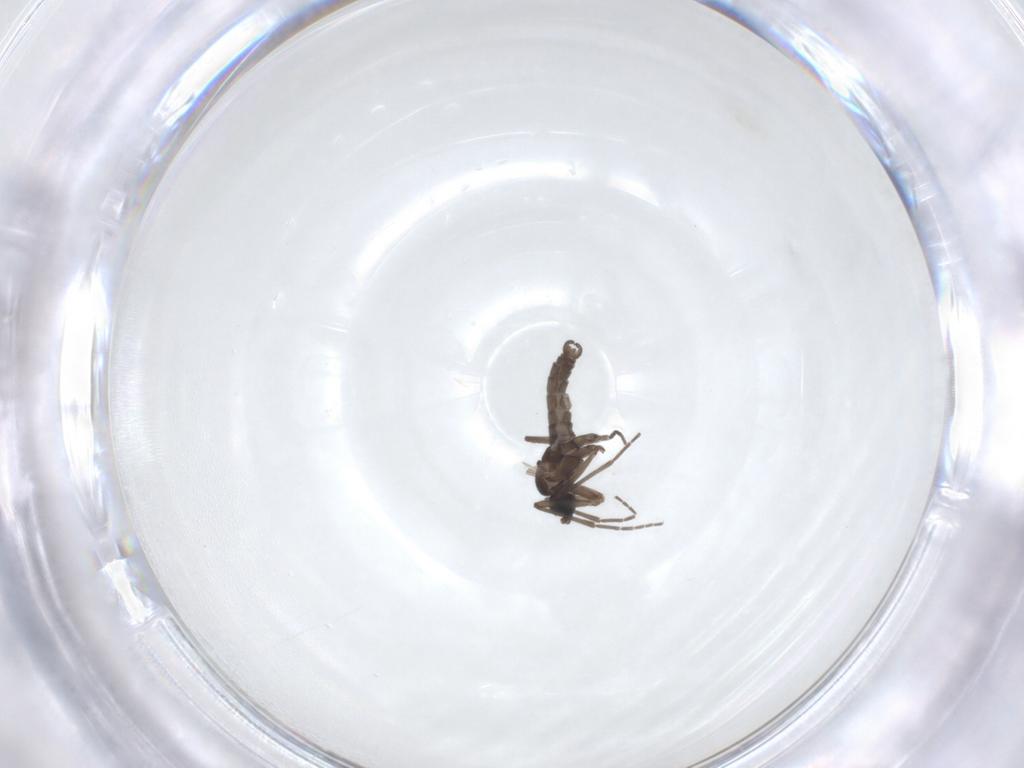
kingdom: Animalia
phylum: Arthropoda
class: Insecta
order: Diptera
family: Sciaridae
